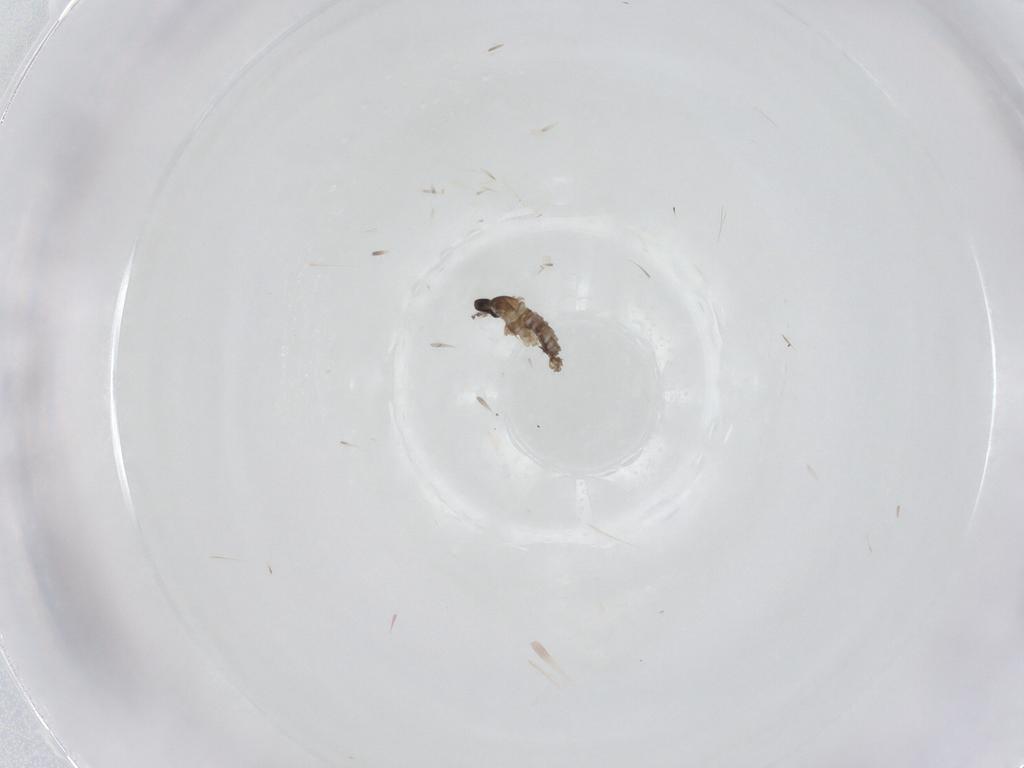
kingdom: Animalia
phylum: Arthropoda
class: Insecta
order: Diptera
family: Cecidomyiidae
